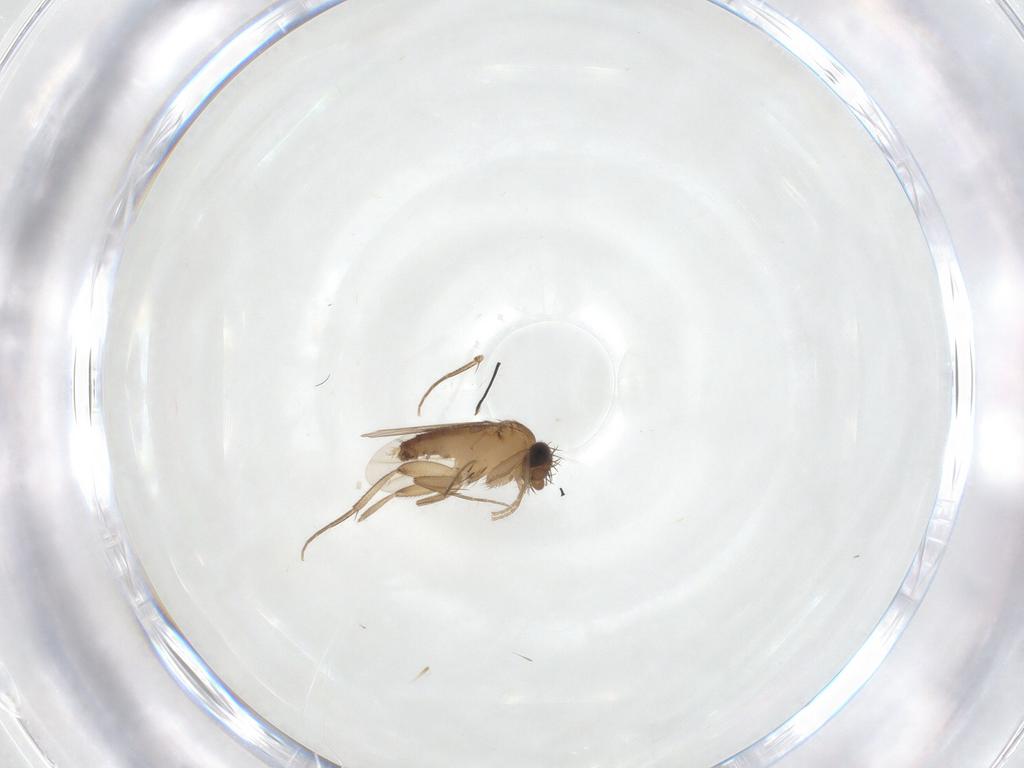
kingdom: Animalia
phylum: Arthropoda
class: Insecta
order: Diptera
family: Phoridae
